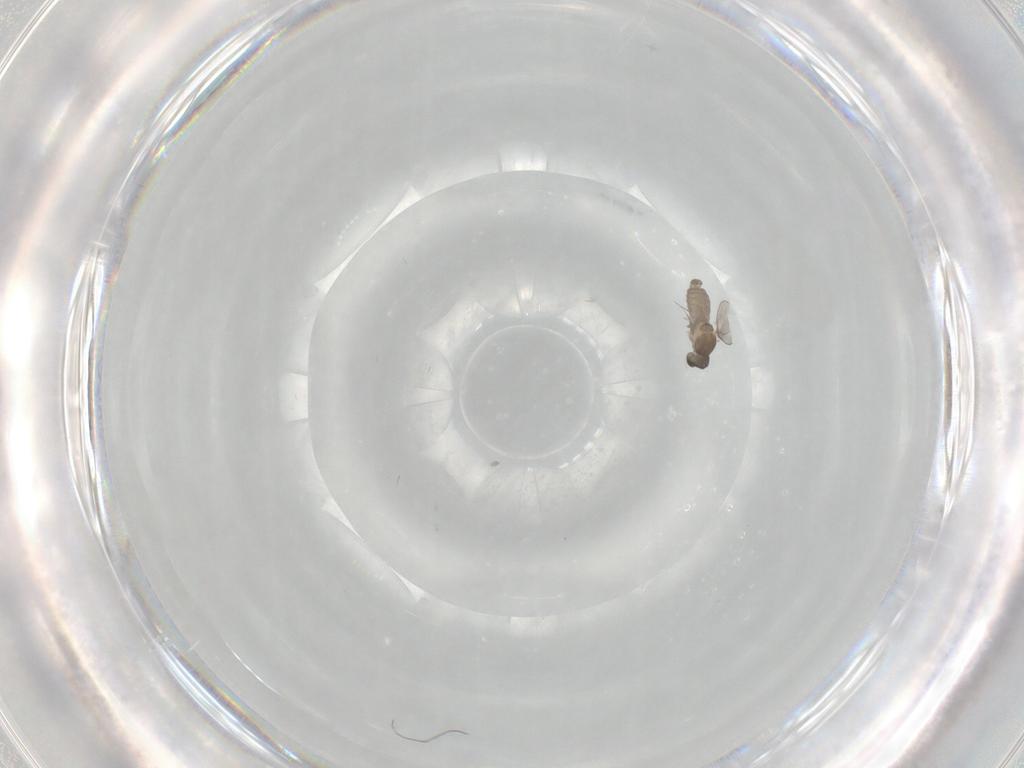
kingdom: Animalia
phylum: Arthropoda
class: Insecta
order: Diptera
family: Cecidomyiidae
